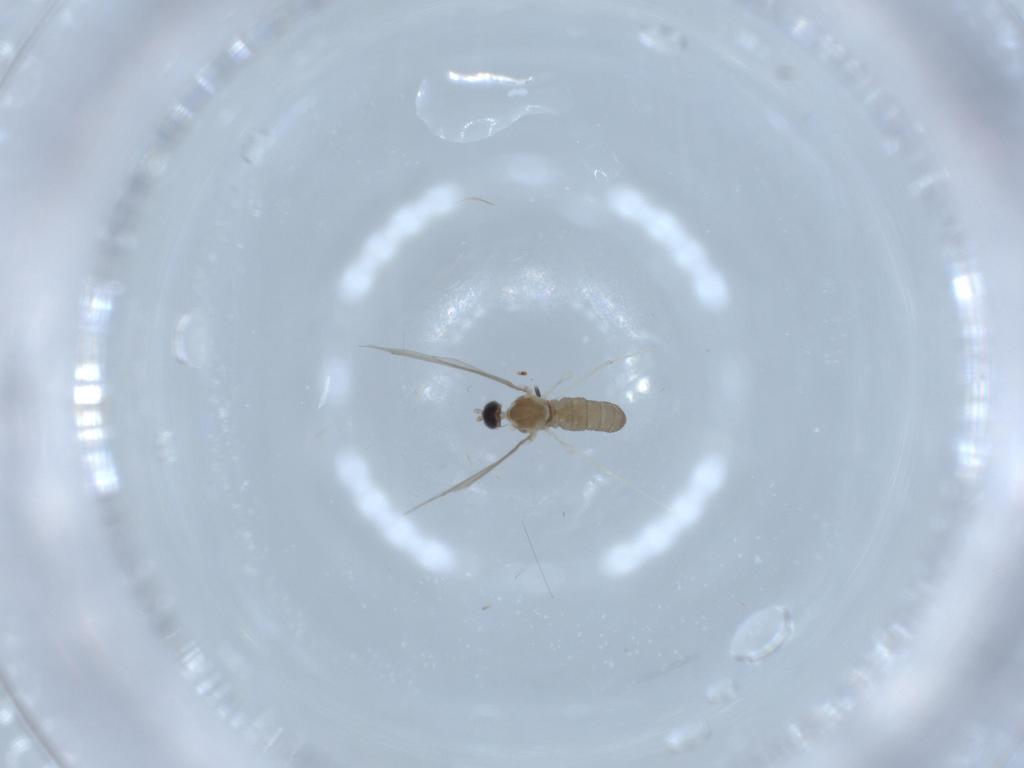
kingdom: Animalia
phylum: Arthropoda
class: Insecta
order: Diptera
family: Cecidomyiidae
